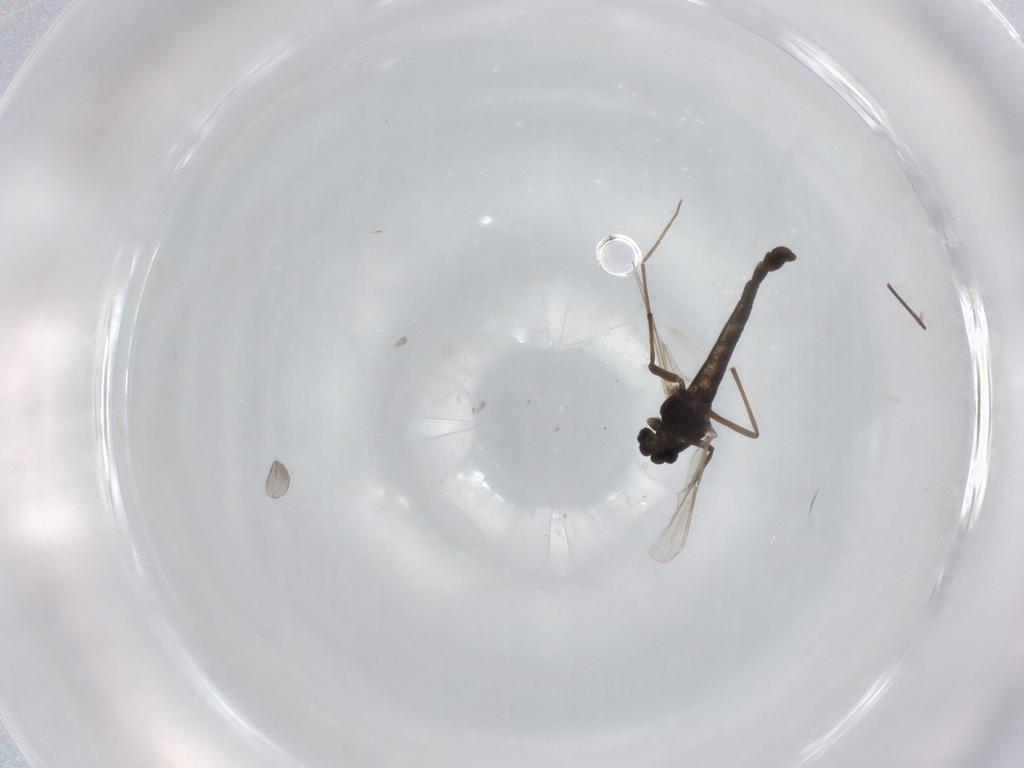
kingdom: Animalia
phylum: Arthropoda
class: Insecta
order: Diptera
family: Chironomidae
